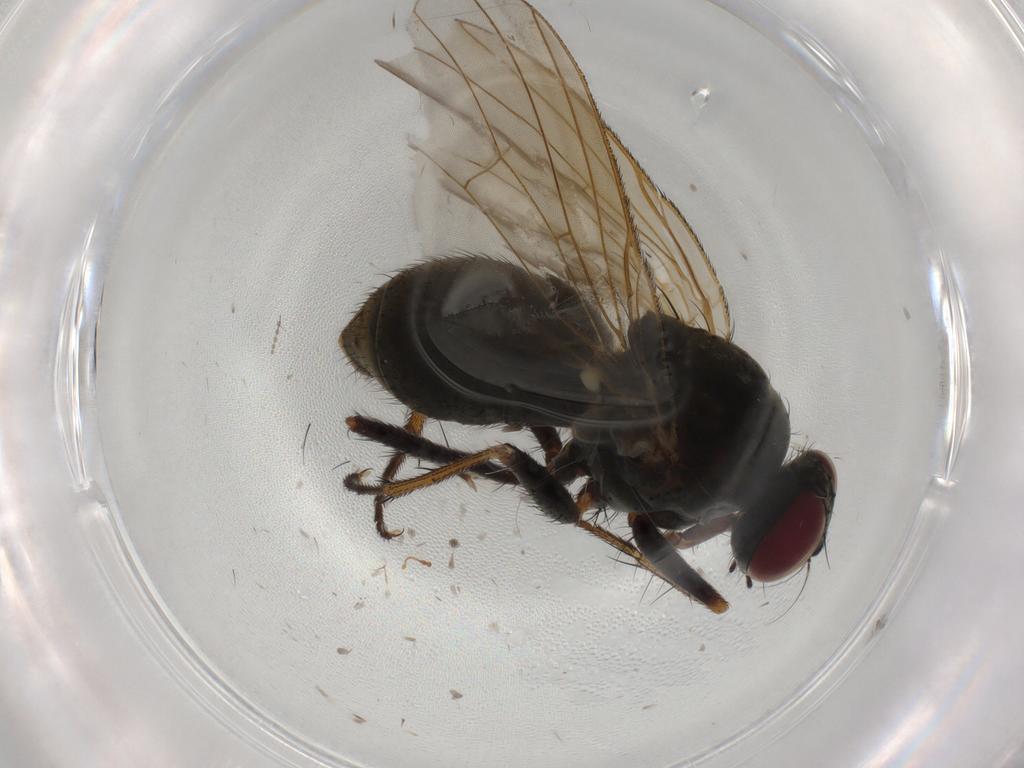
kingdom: Animalia
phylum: Arthropoda
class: Insecta
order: Diptera
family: Muscidae
